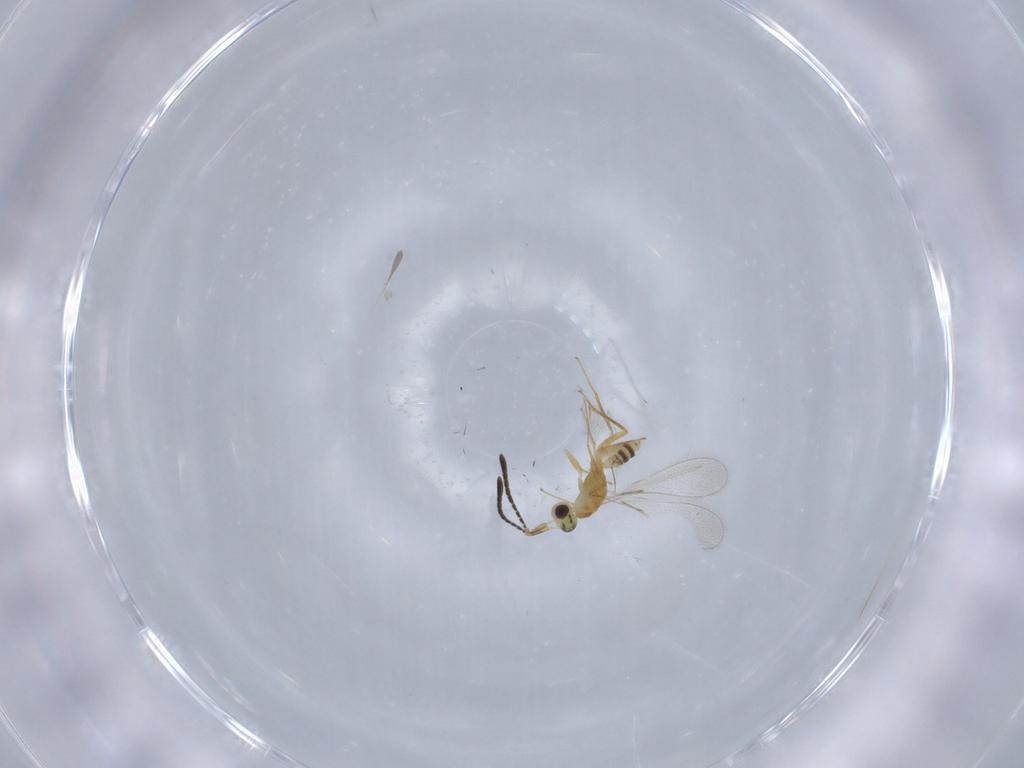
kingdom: Animalia
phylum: Arthropoda
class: Insecta
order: Hymenoptera
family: Mymaridae
